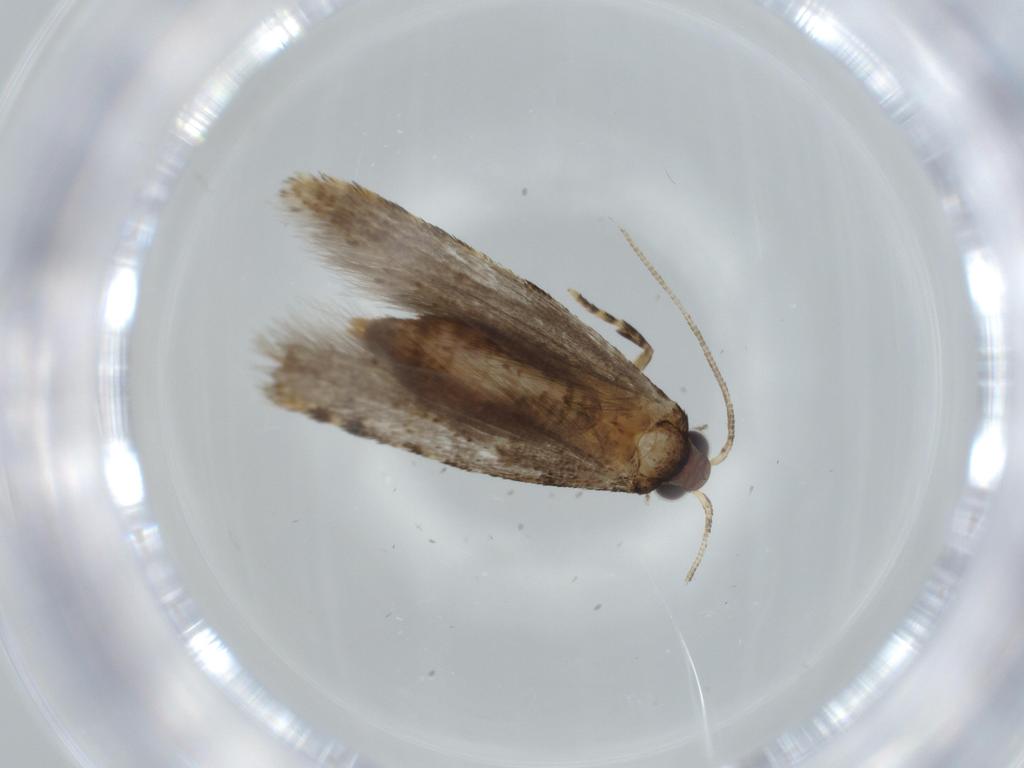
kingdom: Animalia
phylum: Arthropoda
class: Insecta
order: Lepidoptera
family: Tineidae
